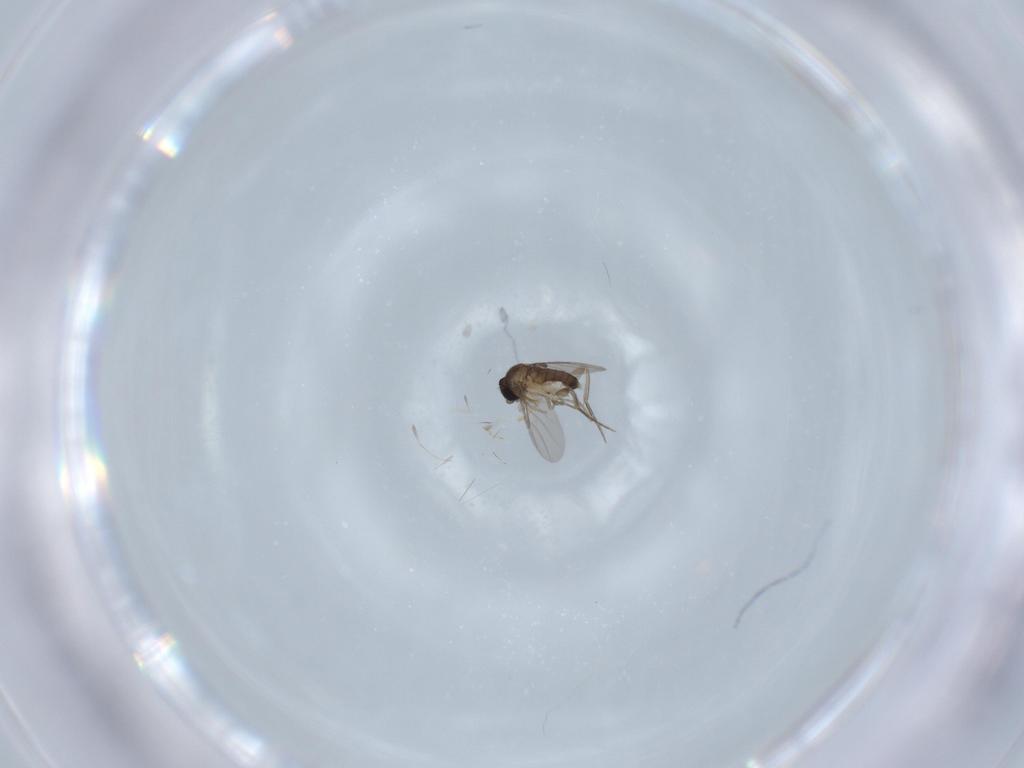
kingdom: Animalia
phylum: Arthropoda
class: Insecta
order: Diptera
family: Phoridae
